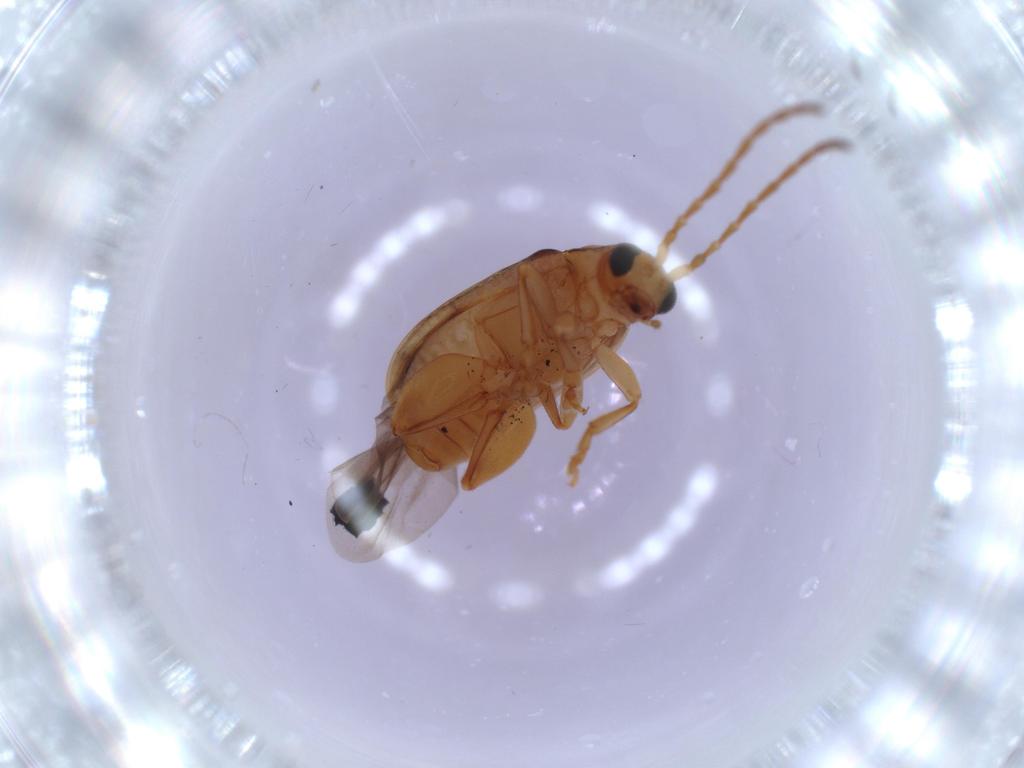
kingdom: Animalia
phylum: Arthropoda
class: Insecta
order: Coleoptera
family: Chrysomelidae
